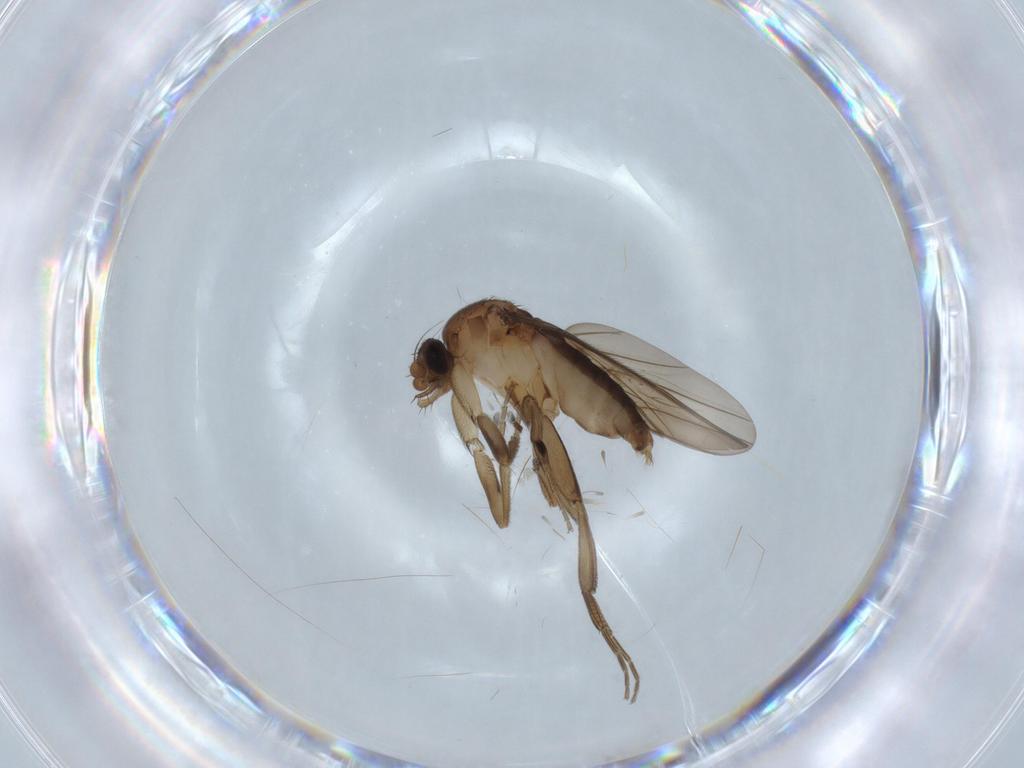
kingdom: Animalia
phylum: Arthropoda
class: Insecta
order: Diptera
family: Phoridae
